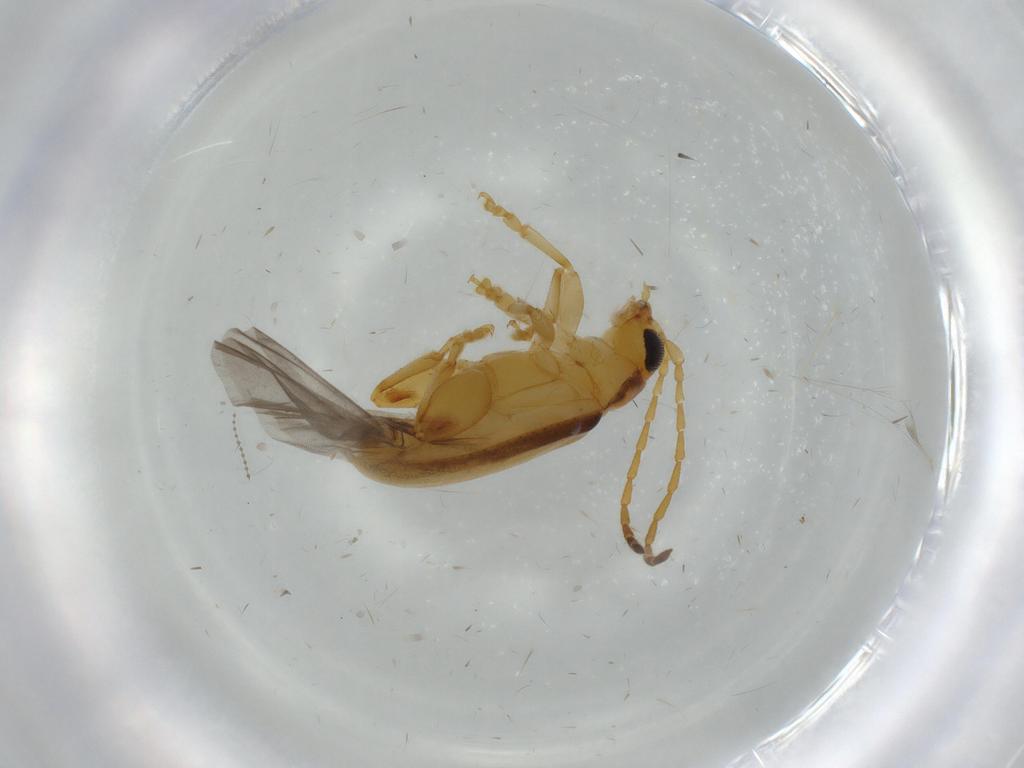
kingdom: Animalia
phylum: Arthropoda
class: Insecta
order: Coleoptera
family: Chrysomelidae
